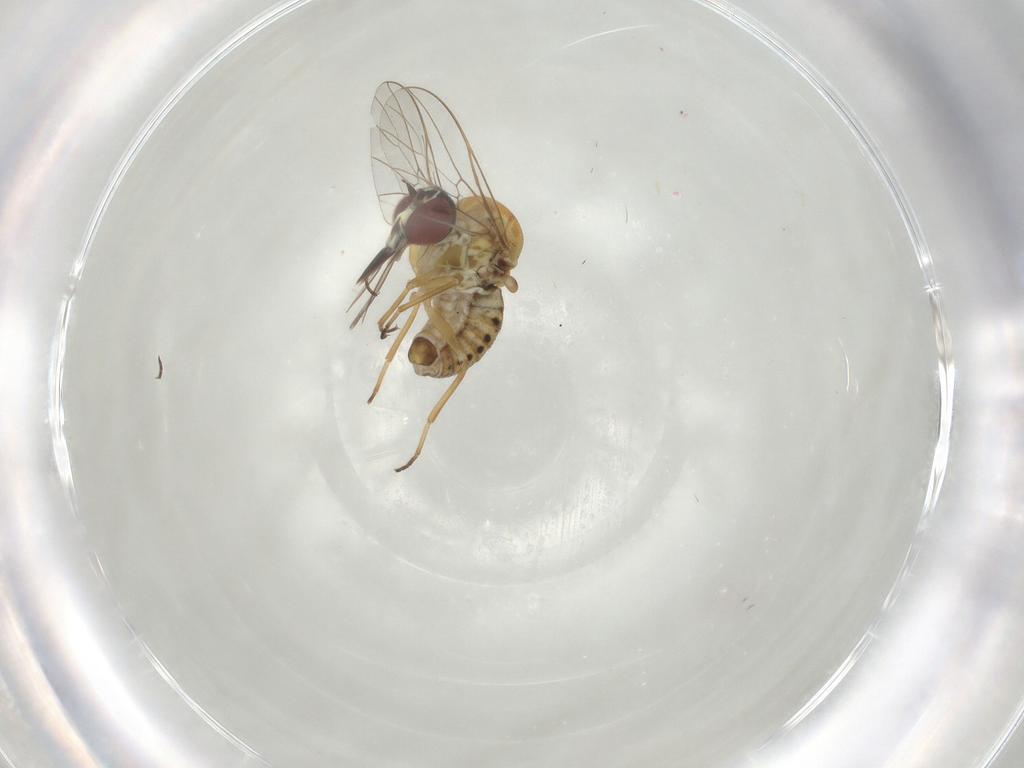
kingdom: Animalia
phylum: Arthropoda
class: Insecta
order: Diptera
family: Bombyliidae
